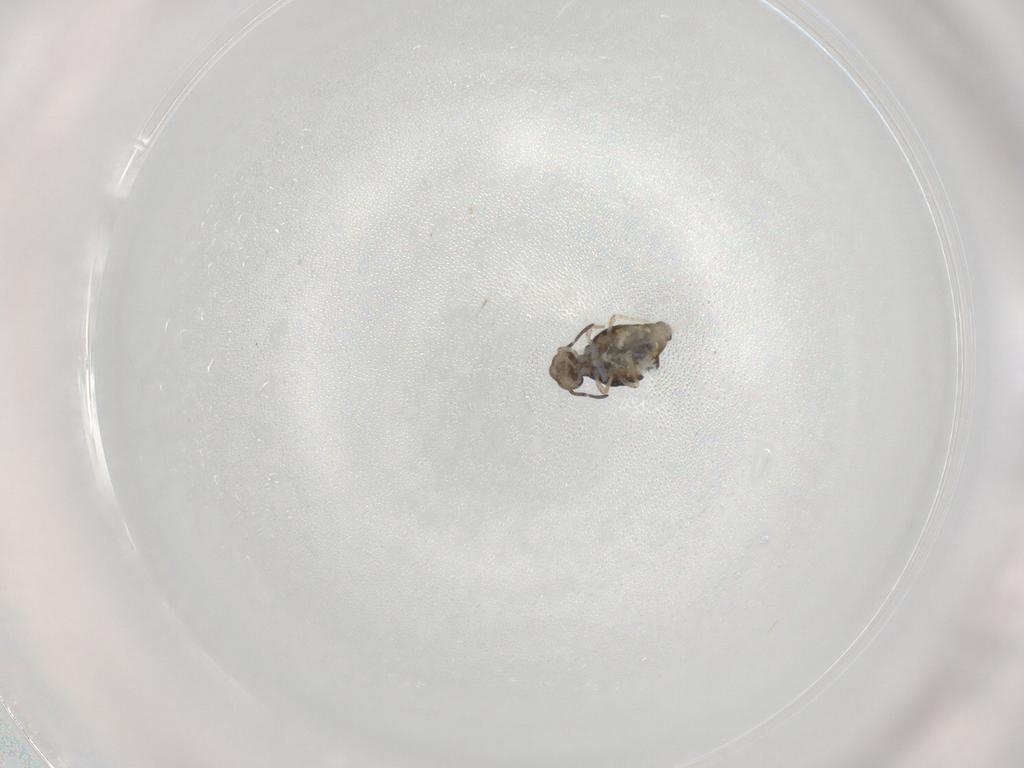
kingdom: Animalia
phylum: Arthropoda
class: Collembola
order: Symphypleona
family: Katiannidae
